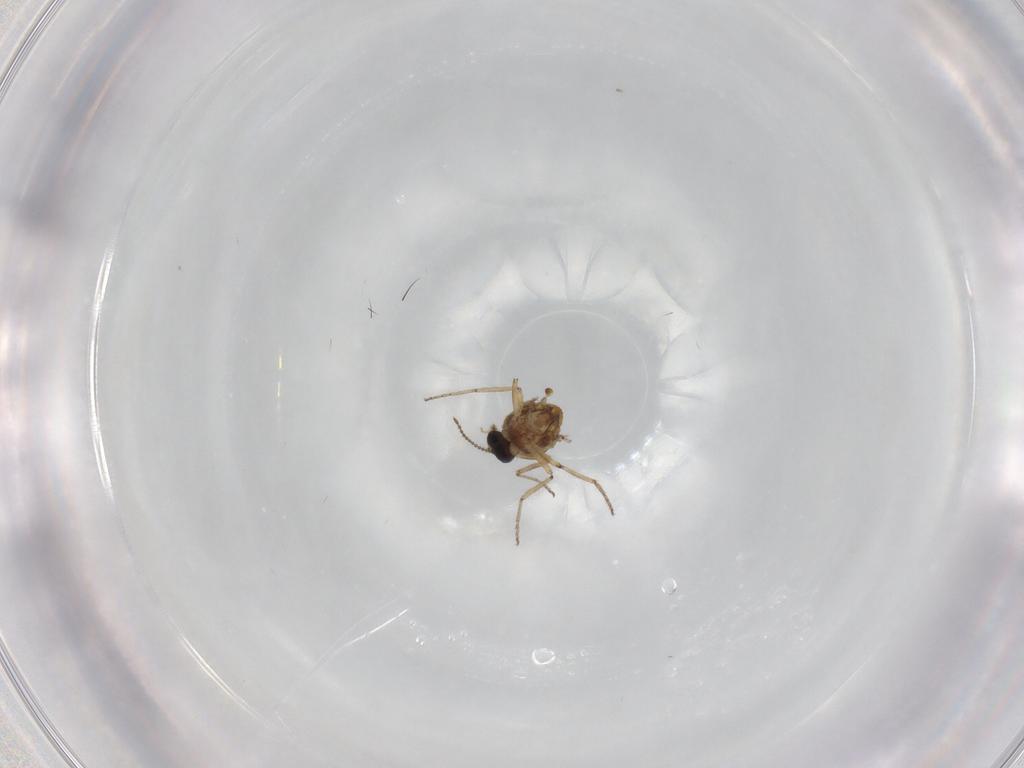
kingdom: Animalia
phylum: Arthropoda
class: Insecta
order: Diptera
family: Ceratopogonidae
